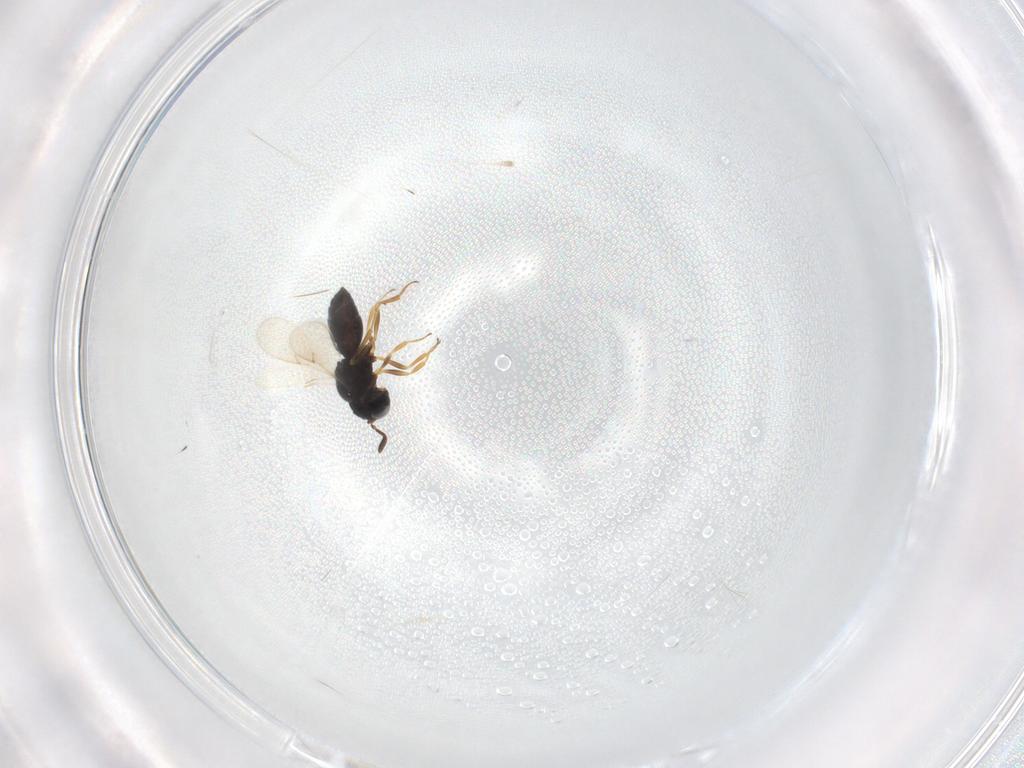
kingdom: Animalia
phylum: Arthropoda
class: Insecta
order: Hymenoptera
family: Scelionidae
